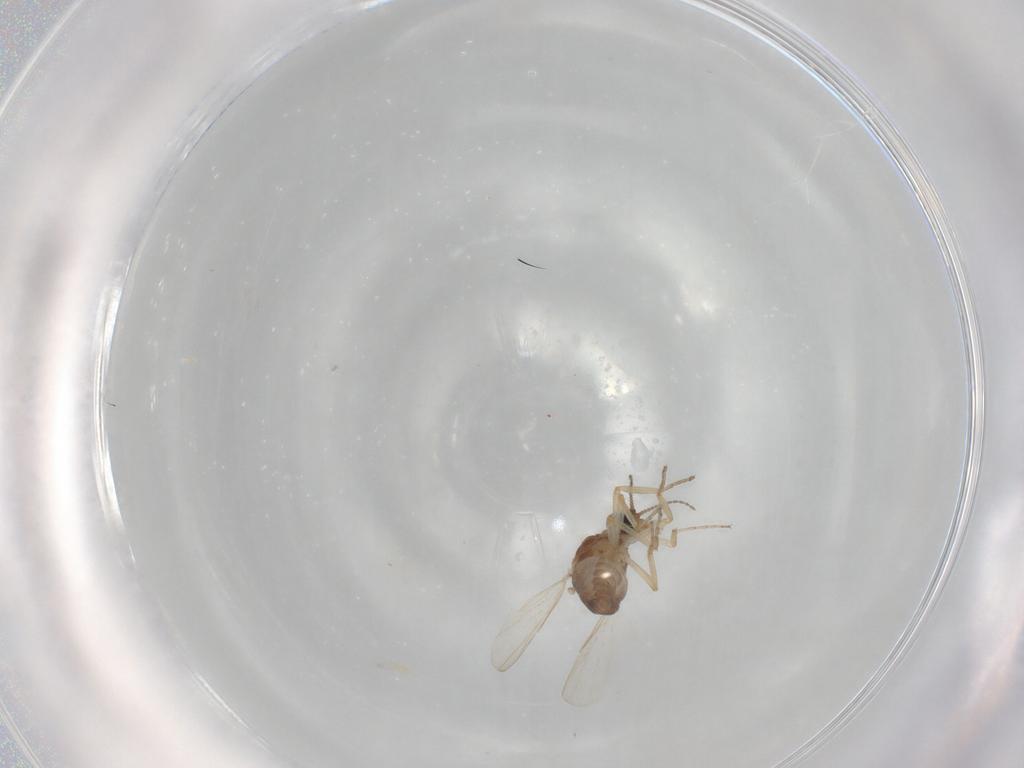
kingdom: Animalia
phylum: Arthropoda
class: Insecta
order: Diptera
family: Ceratopogonidae
